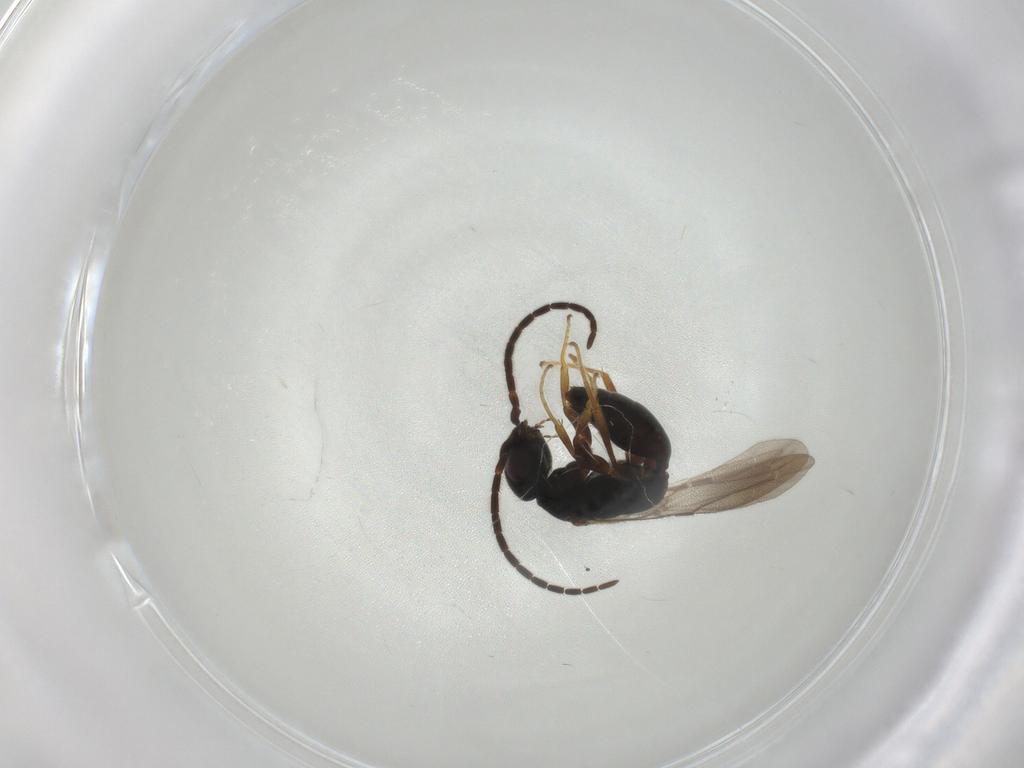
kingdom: Animalia
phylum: Arthropoda
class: Insecta
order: Hymenoptera
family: Bethylidae
